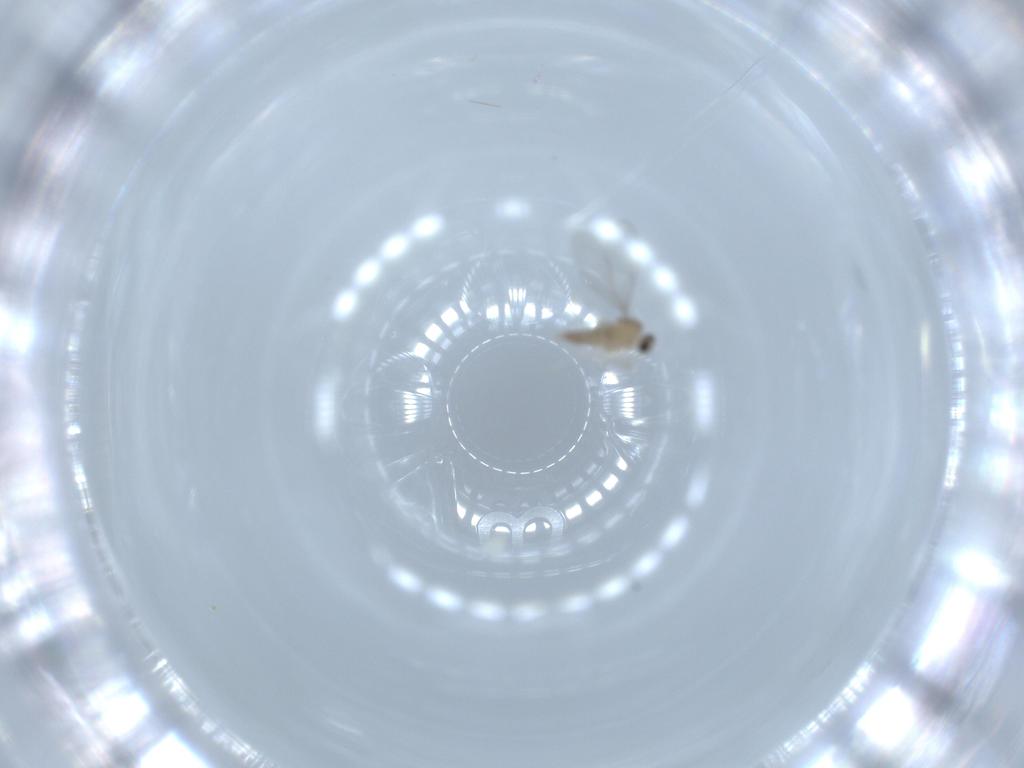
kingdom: Animalia
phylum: Arthropoda
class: Insecta
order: Diptera
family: Cecidomyiidae
